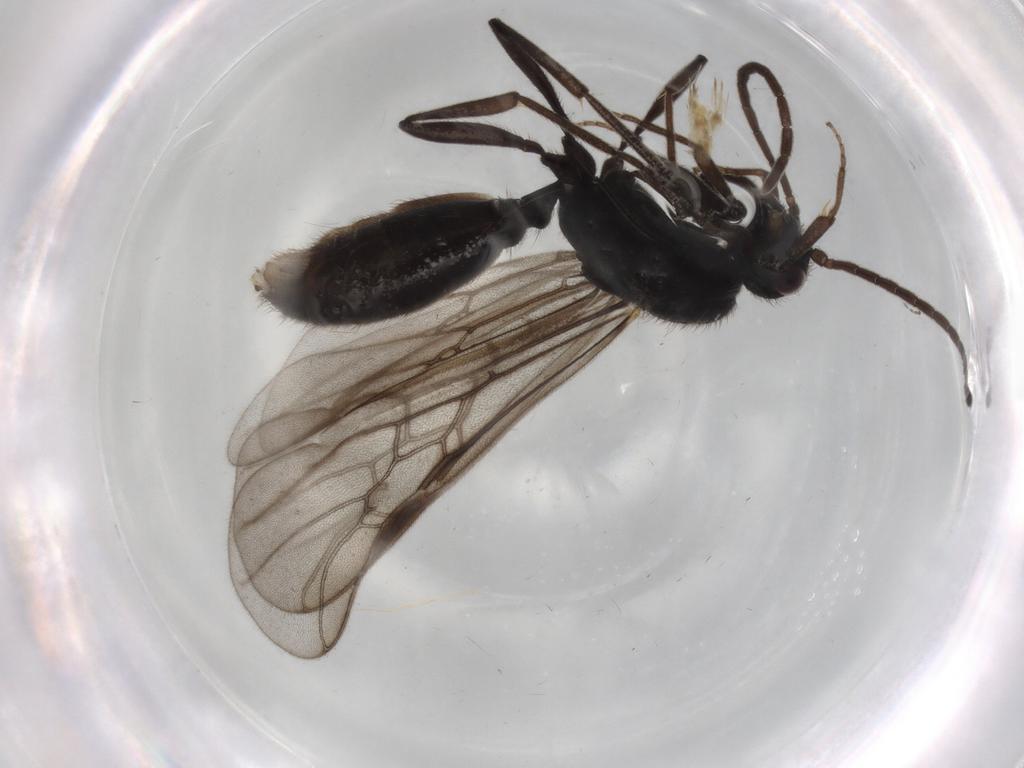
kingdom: Animalia
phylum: Arthropoda
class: Insecta
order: Hymenoptera
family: Formicidae
